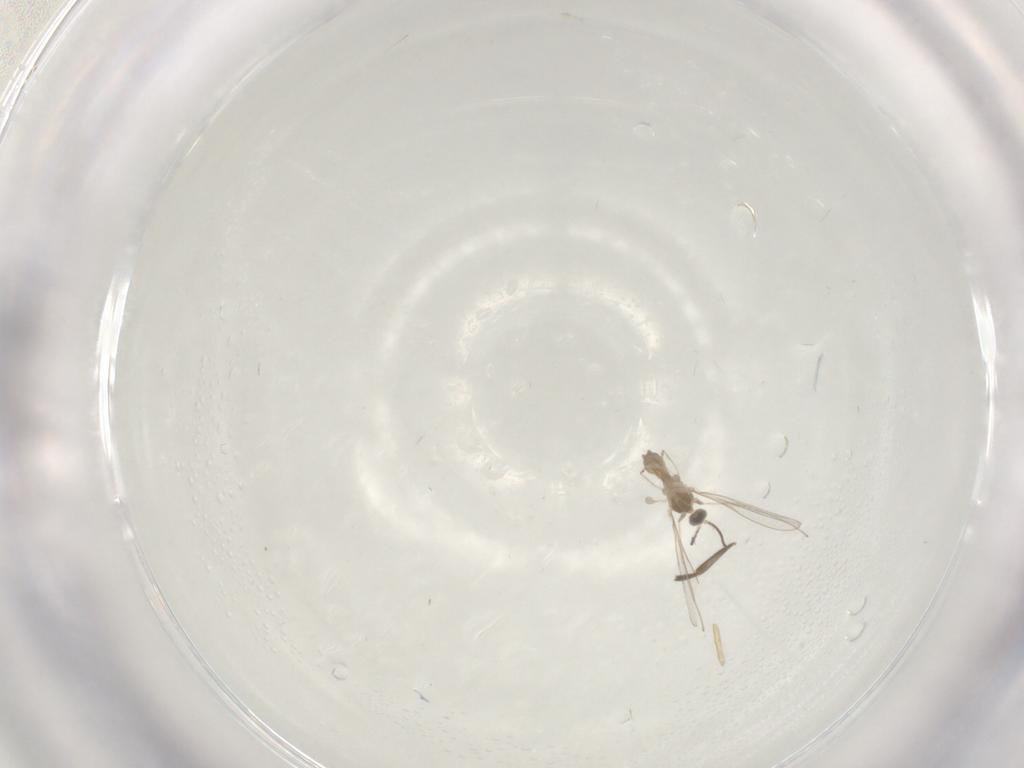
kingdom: Animalia
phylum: Arthropoda
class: Insecta
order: Diptera
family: Phoridae
